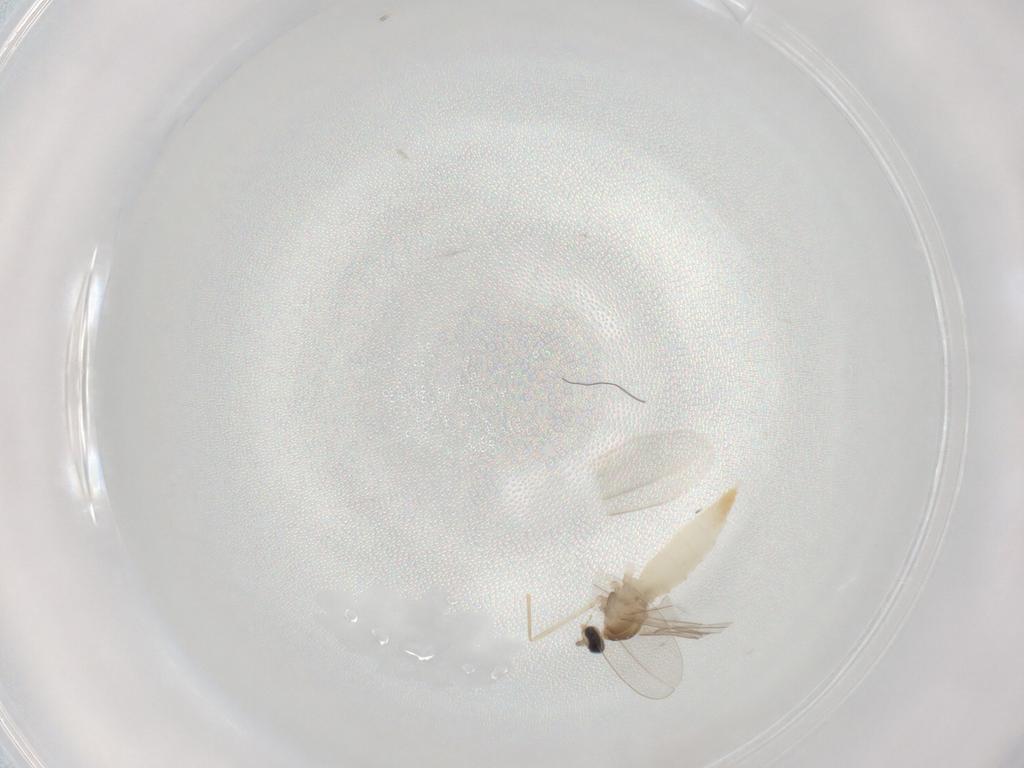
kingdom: Animalia
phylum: Arthropoda
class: Insecta
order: Diptera
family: Cecidomyiidae
